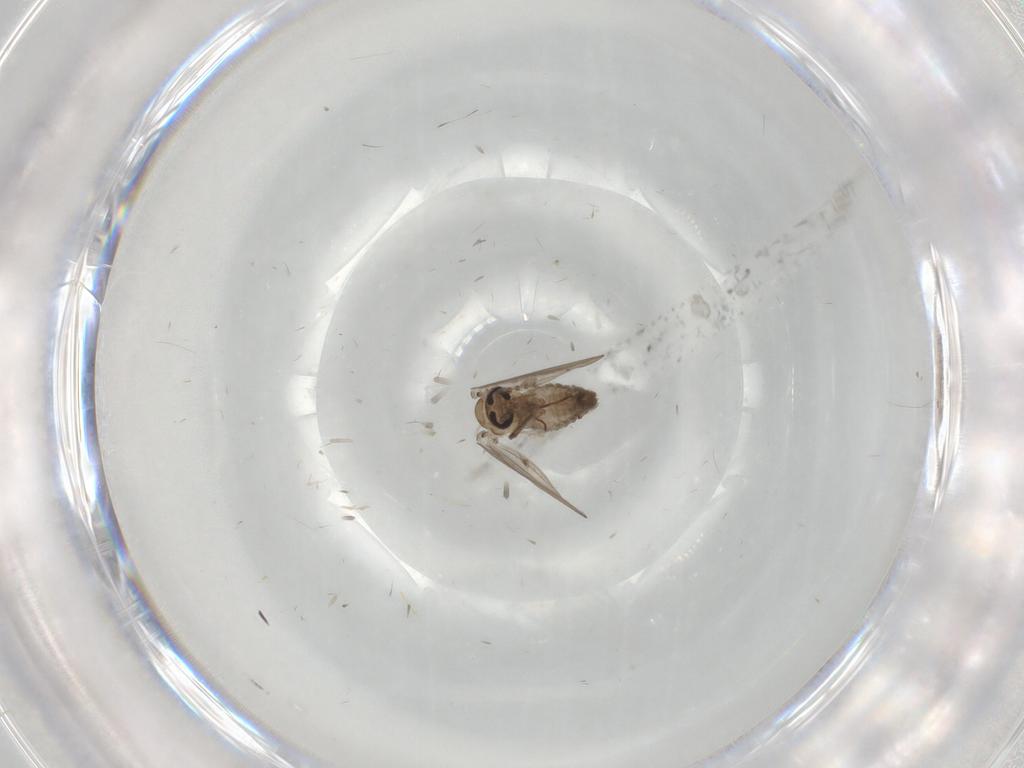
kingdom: Animalia
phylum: Arthropoda
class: Insecta
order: Diptera
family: Psychodidae
